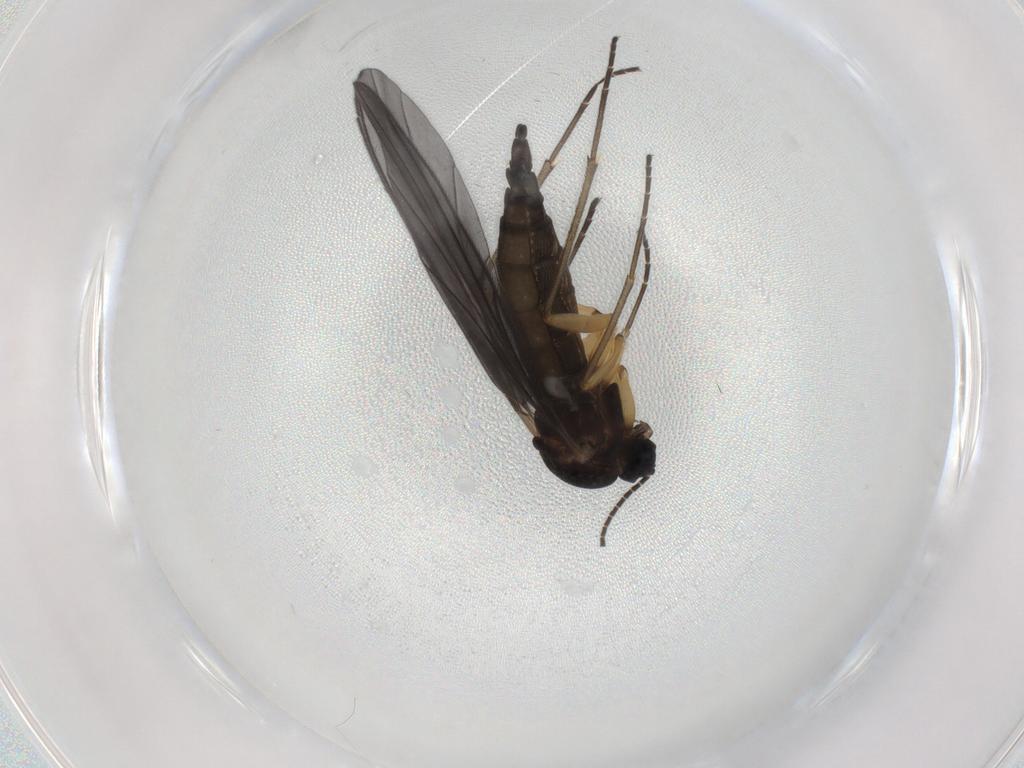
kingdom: Animalia
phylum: Arthropoda
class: Insecta
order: Diptera
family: Sciaridae
